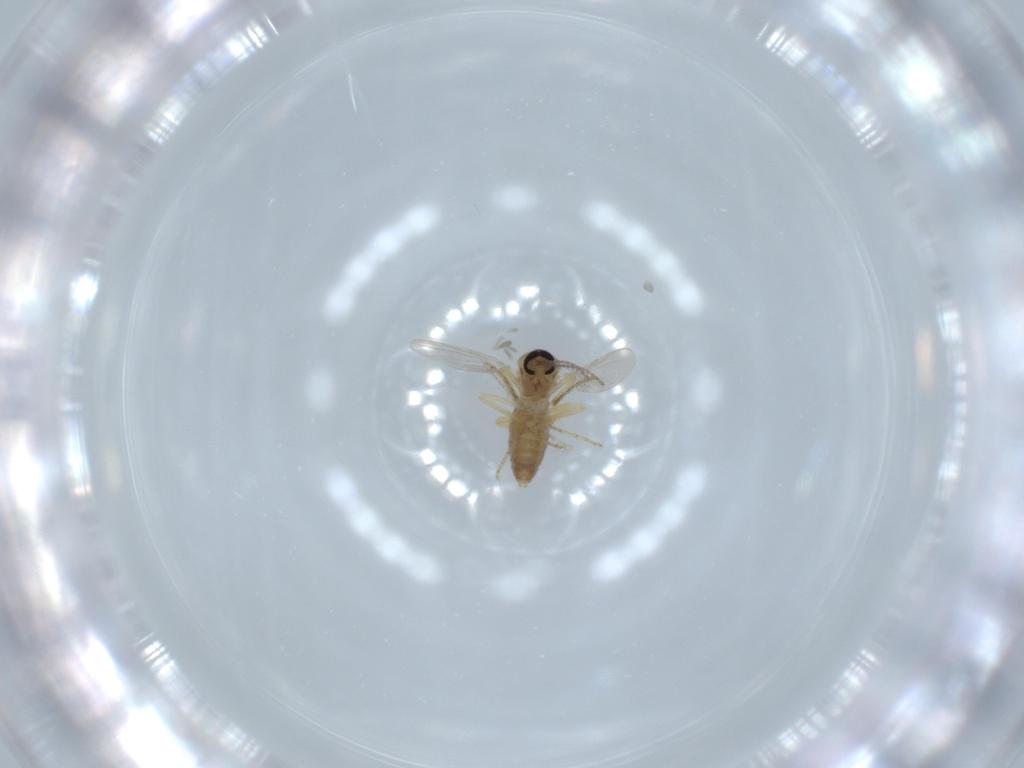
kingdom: Animalia
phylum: Arthropoda
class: Insecta
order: Diptera
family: Ceratopogonidae
